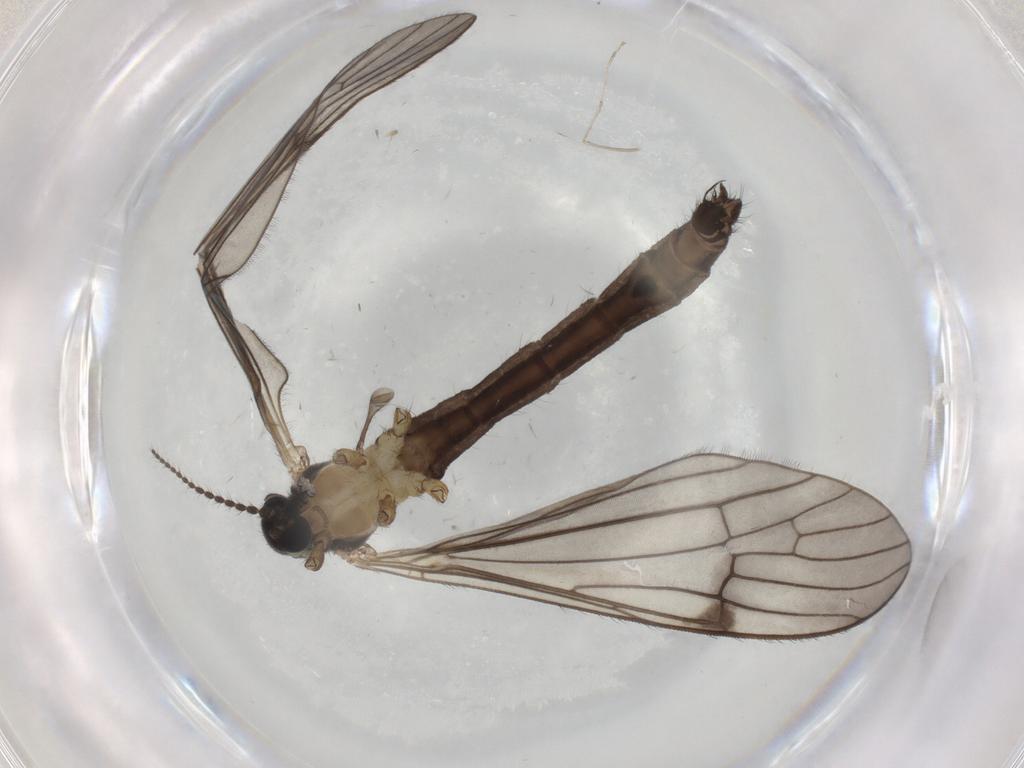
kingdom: Animalia
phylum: Arthropoda
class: Insecta
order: Diptera
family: Limoniidae
